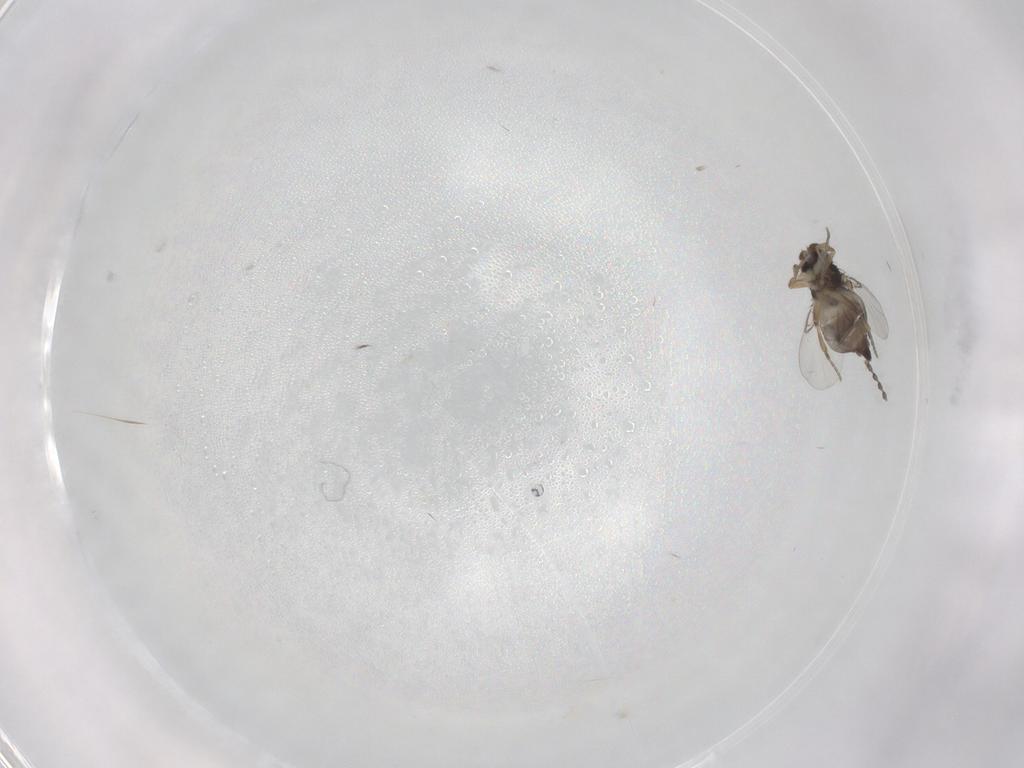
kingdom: Animalia
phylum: Arthropoda
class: Insecta
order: Diptera
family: Phoridae
